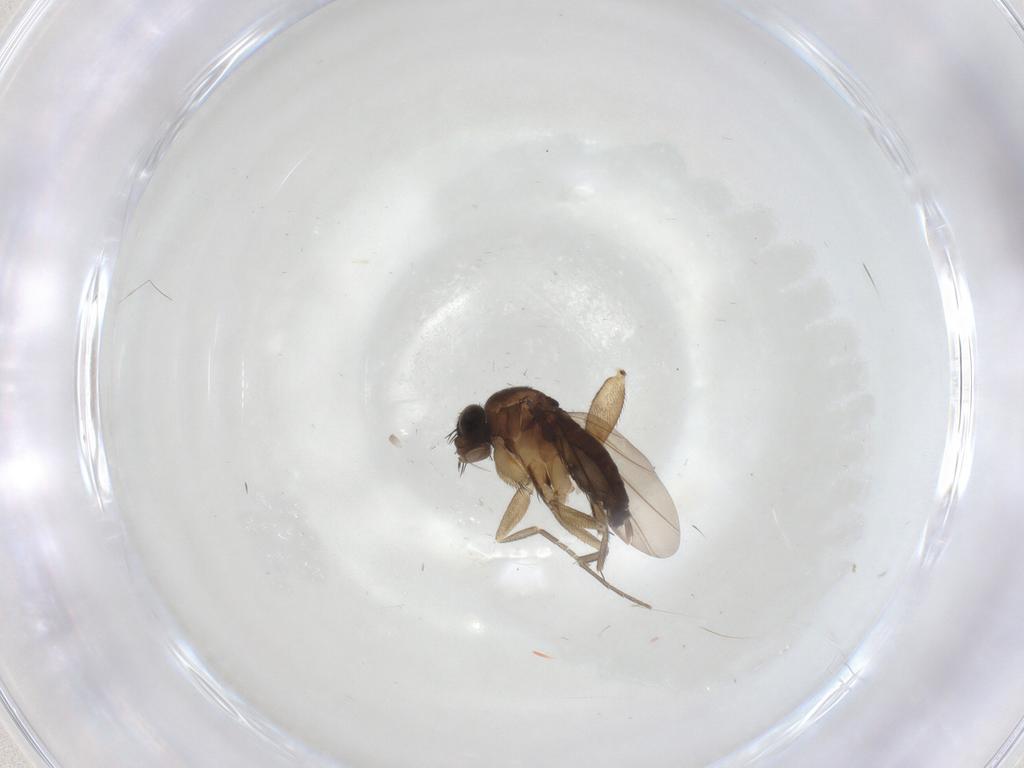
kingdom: Animalia
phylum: Arthropoda
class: Insecta
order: Diptera
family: Phoridae
